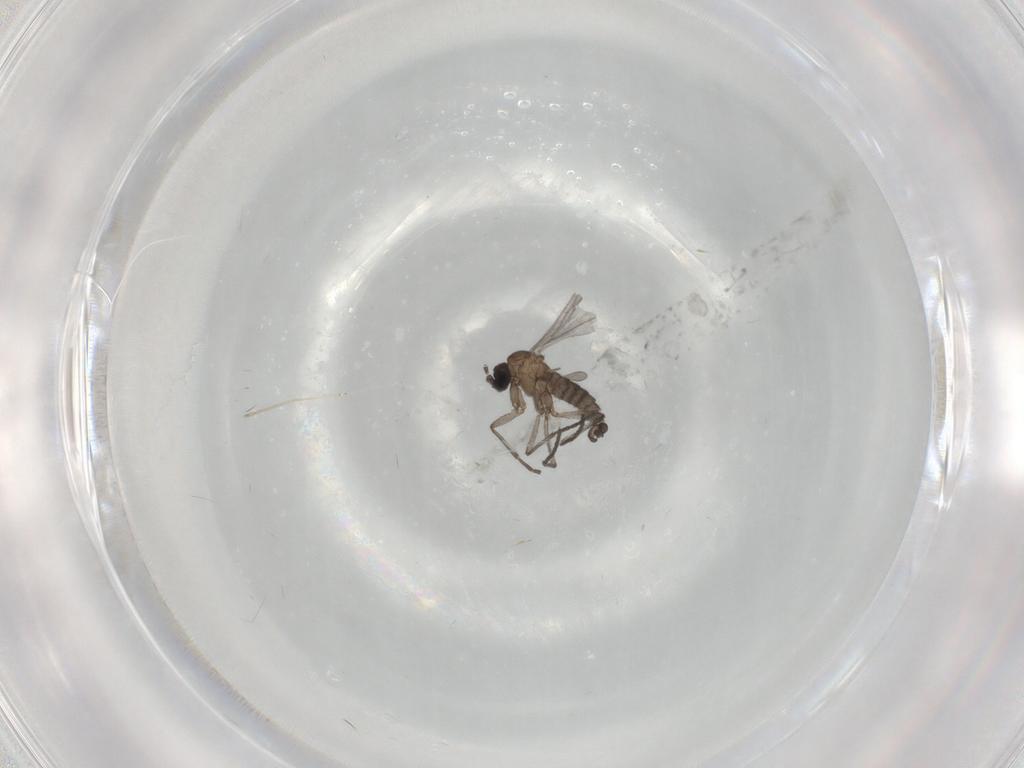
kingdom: Animalia
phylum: Arthropoda
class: Insecta
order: Diptera
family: Sciaridae
